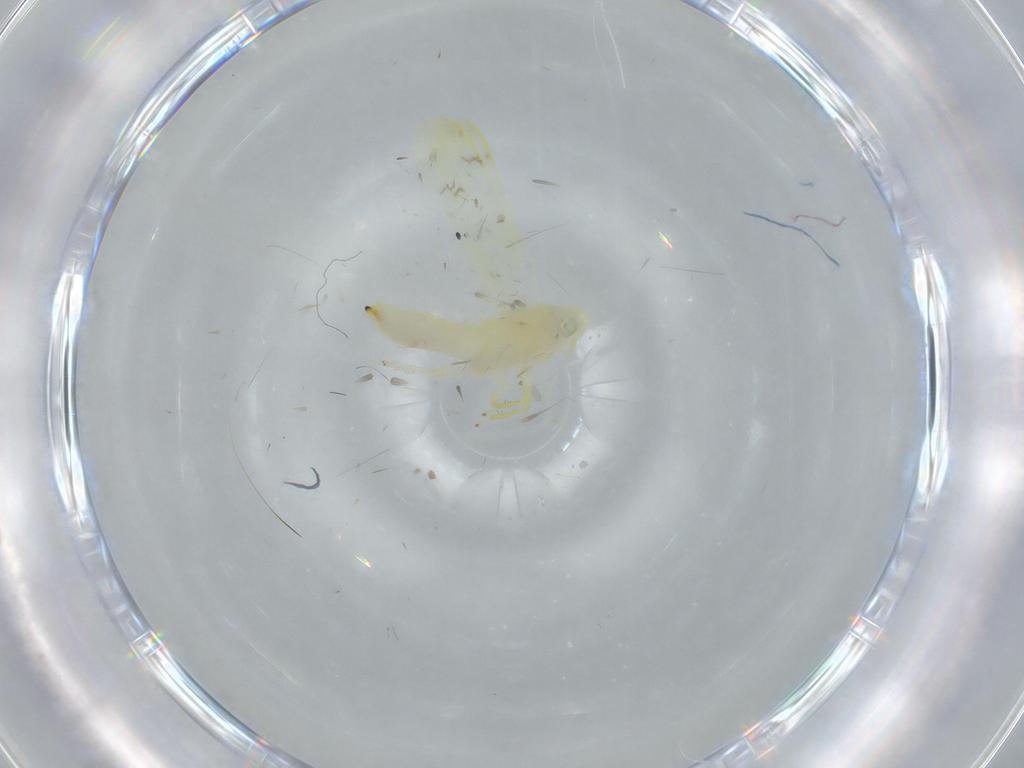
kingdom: Animalia
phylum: Arthropoda
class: Insecta
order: Hemiptera
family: Cicadellidae
